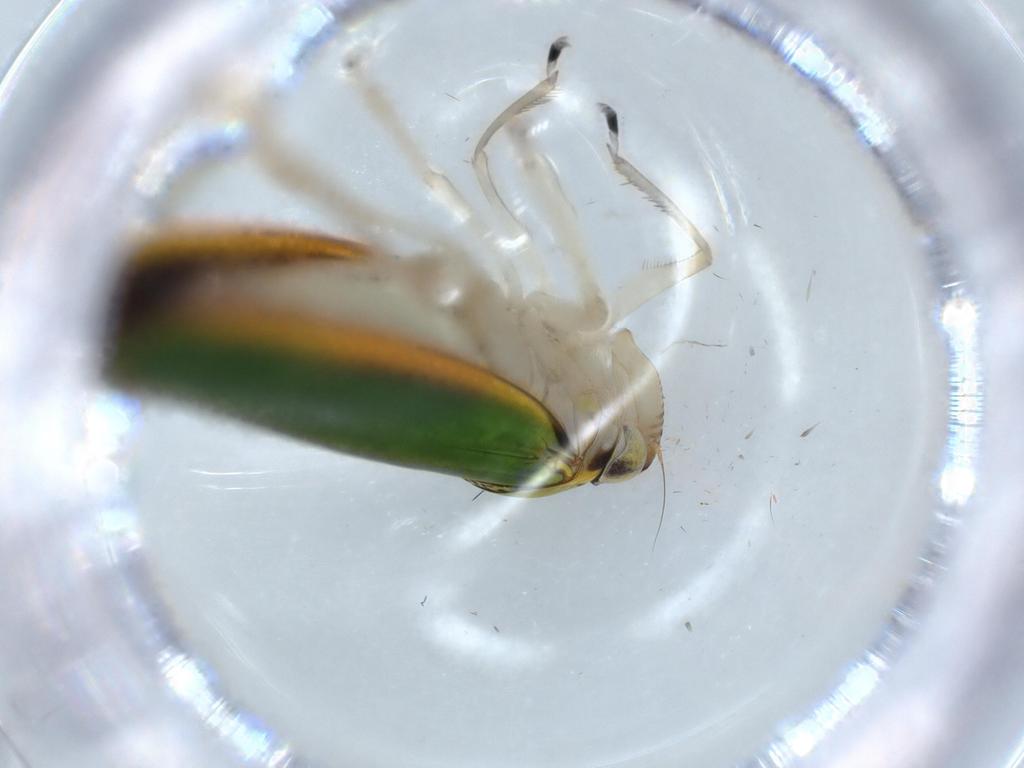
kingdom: Animalia
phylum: Arthropoda
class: Insecta
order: Hemiptera
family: Cicadellidae
